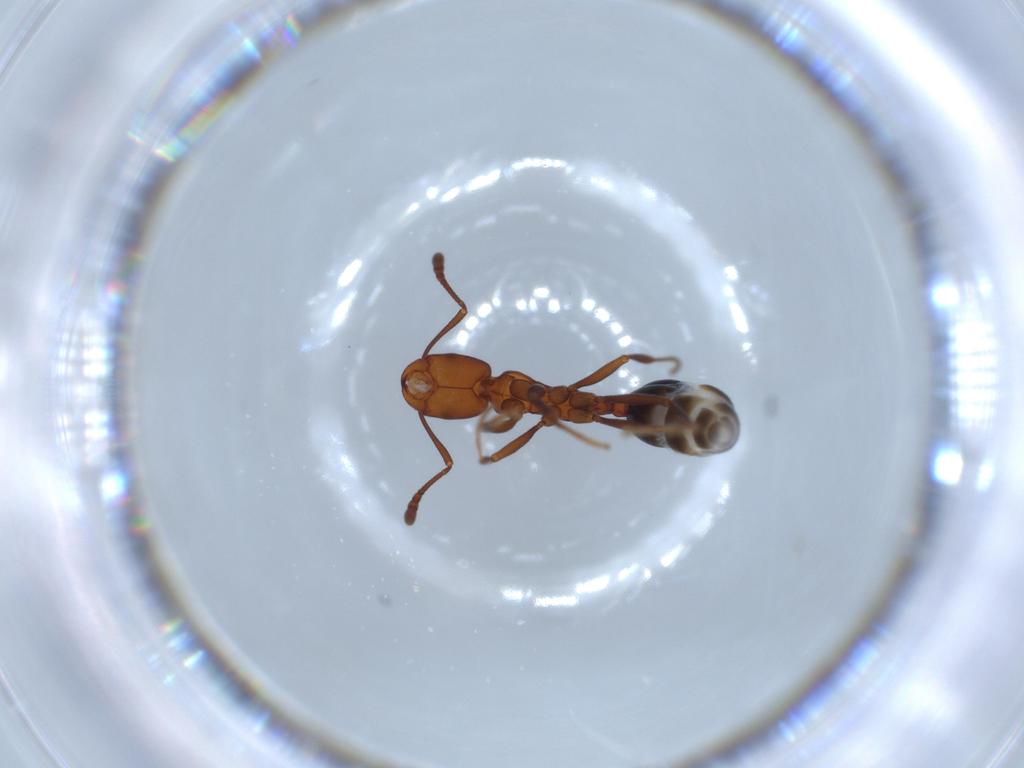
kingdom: Animalia
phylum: Arthropoda
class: Insecta
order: Hymenoptera
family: Formicidae
